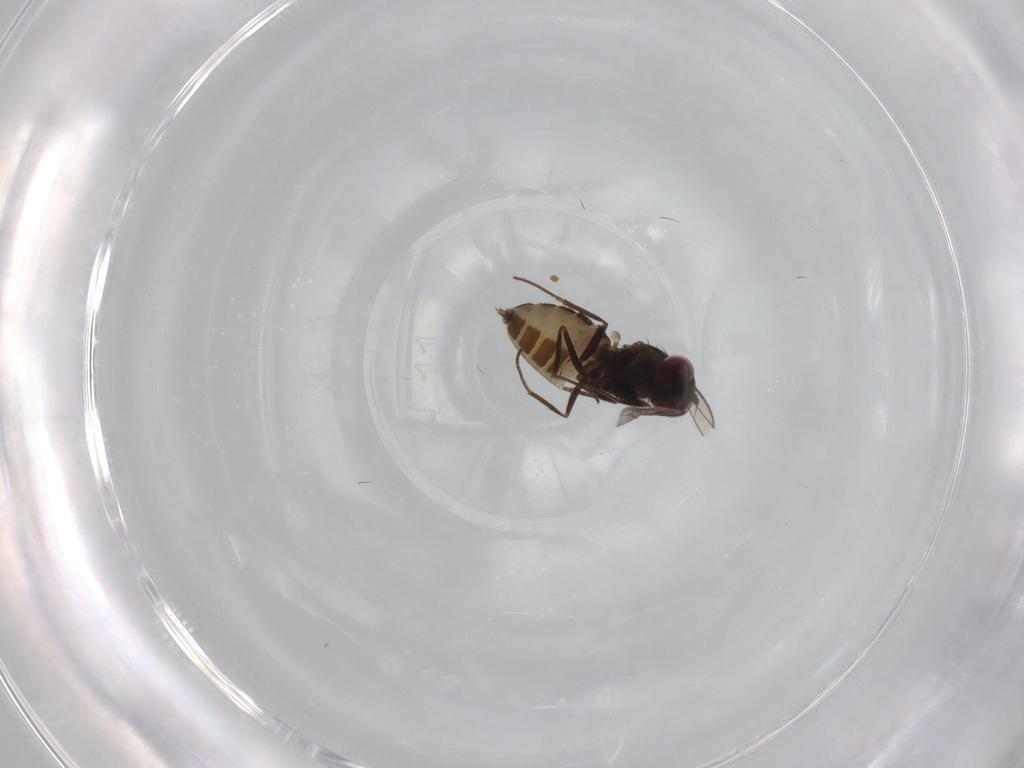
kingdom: Animalia
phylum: Arthropoda
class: Insecta
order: Diptera
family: Dolichopodidae
